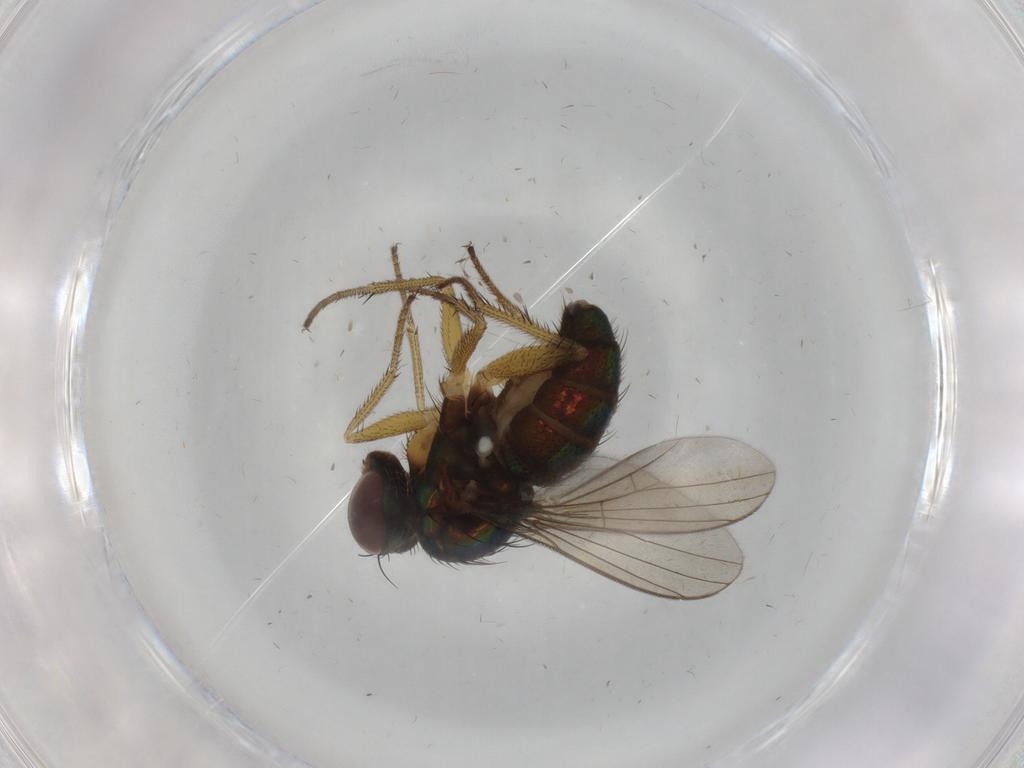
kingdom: Animalia
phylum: Arthropoda
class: Insecta
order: Diptera
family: Dolichopodidae
